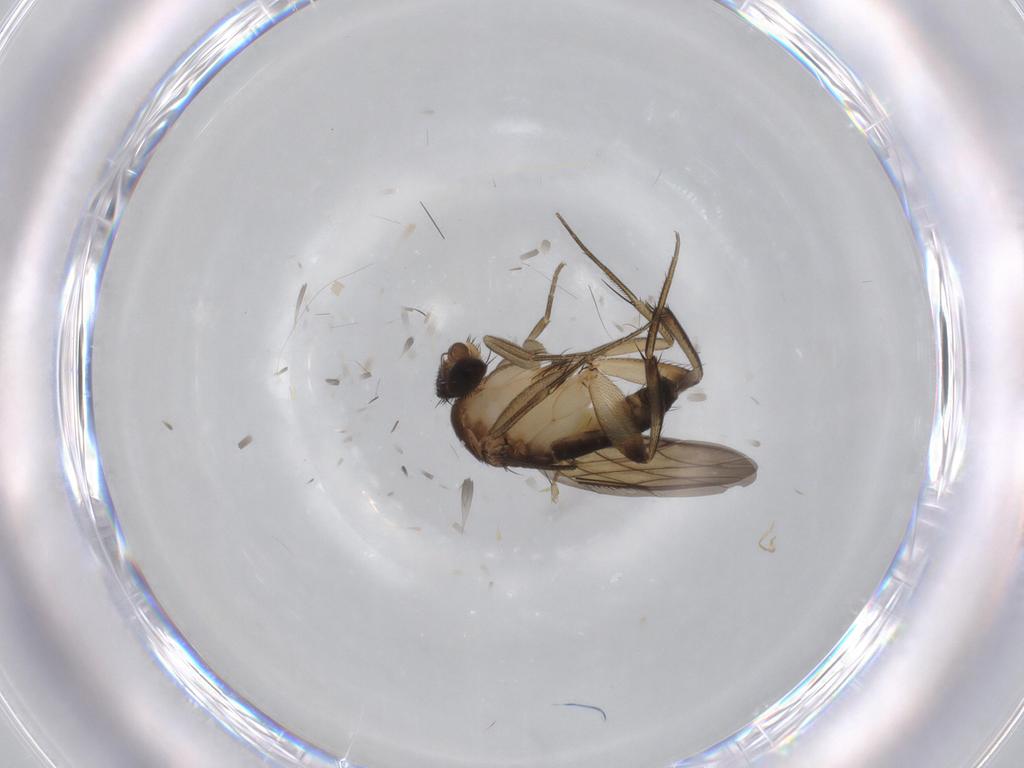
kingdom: Animalia
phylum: Arthropoda
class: Insecta
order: Diptera
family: Phoridae
